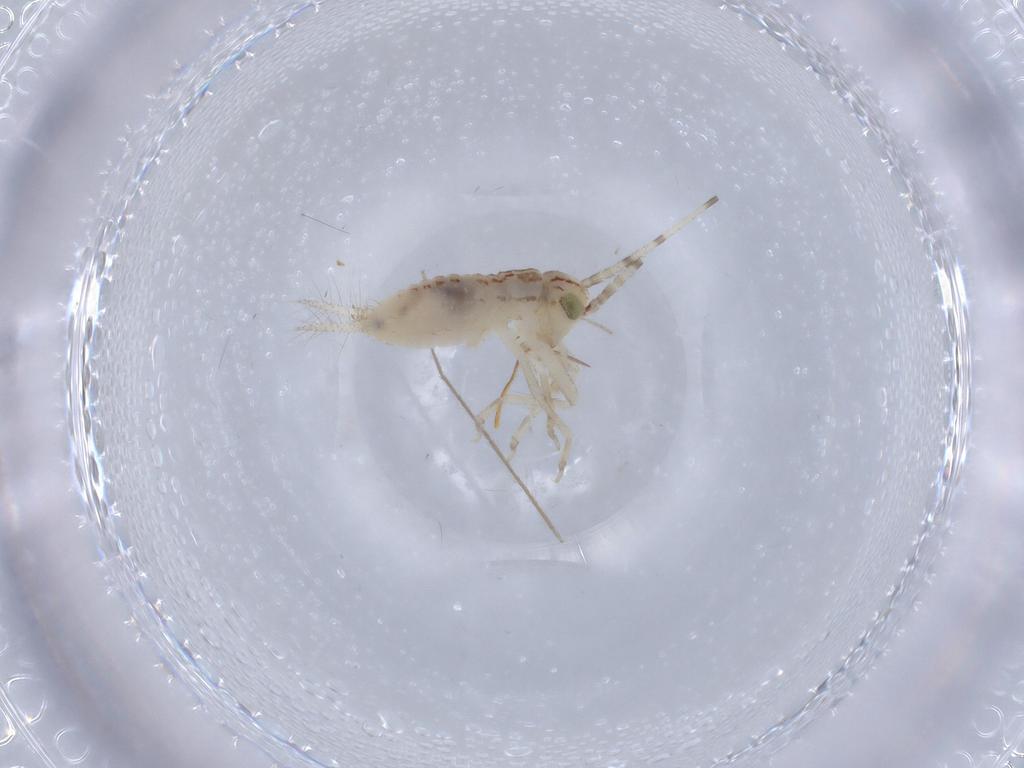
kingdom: Animalia
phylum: Arthropoda
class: Insecta
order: Orthoptera
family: Trigonidiidae
